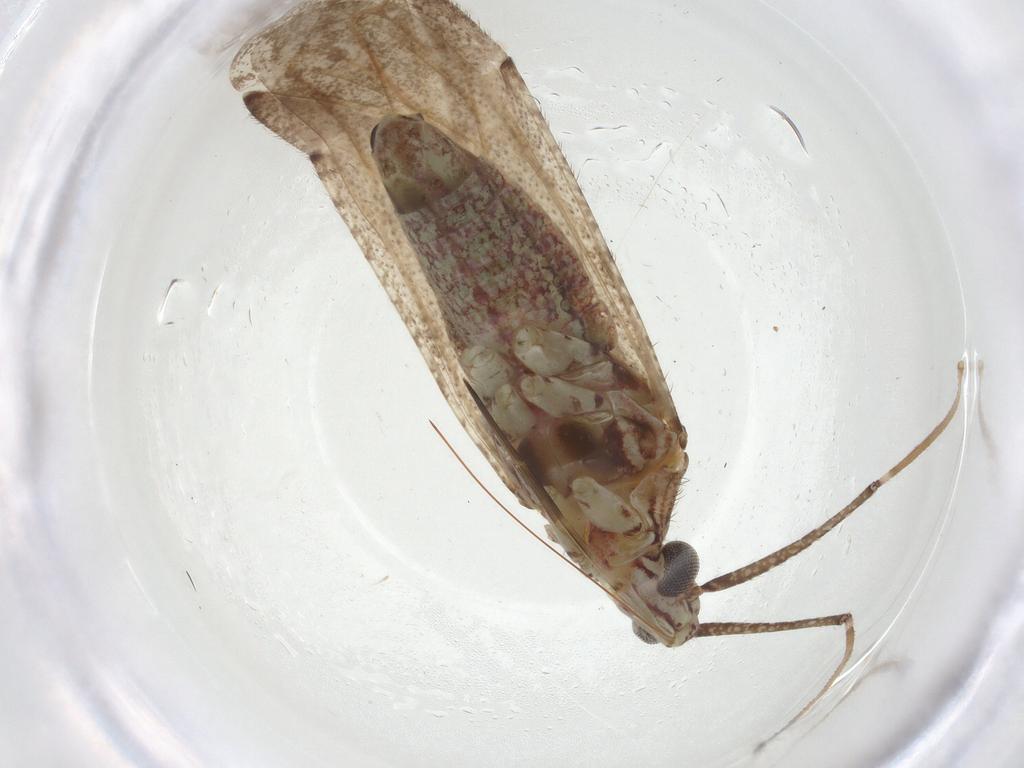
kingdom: Animalia
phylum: Arthropoda
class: Insecta
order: Hemiptera
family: Miridae
